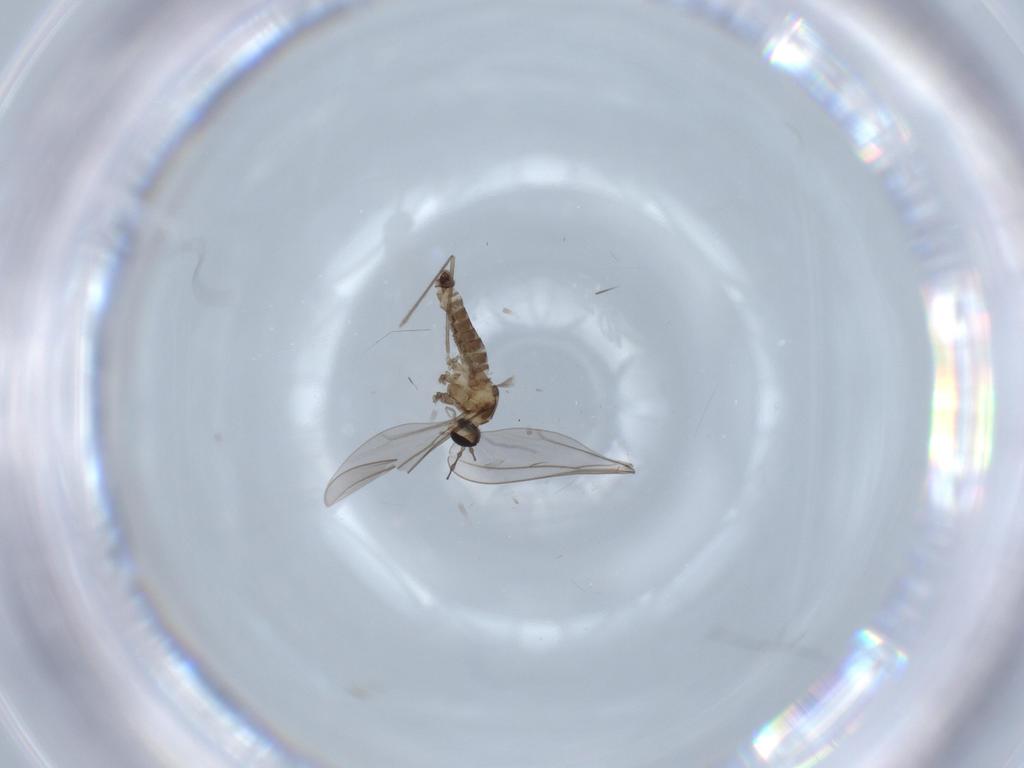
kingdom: Animalia
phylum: Arthropoda
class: Insecta
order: Diptera
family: Cecidomyiidae
